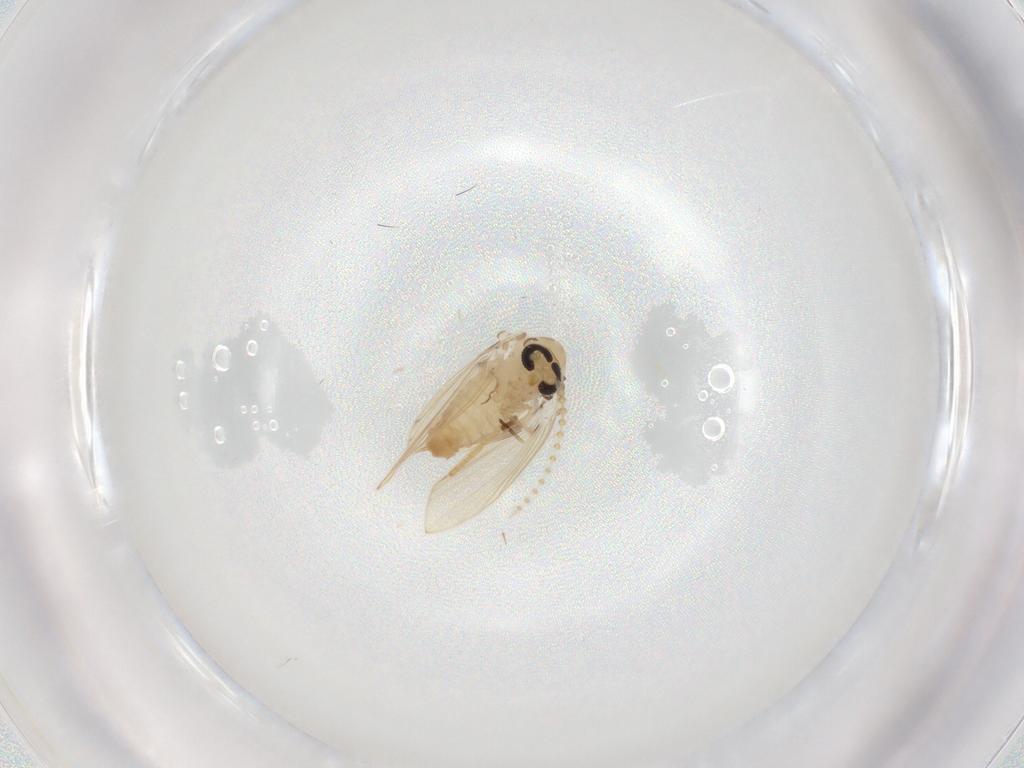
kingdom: Animalia
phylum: Arthropoda
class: Insecta
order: Diptera
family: Psychodidae
